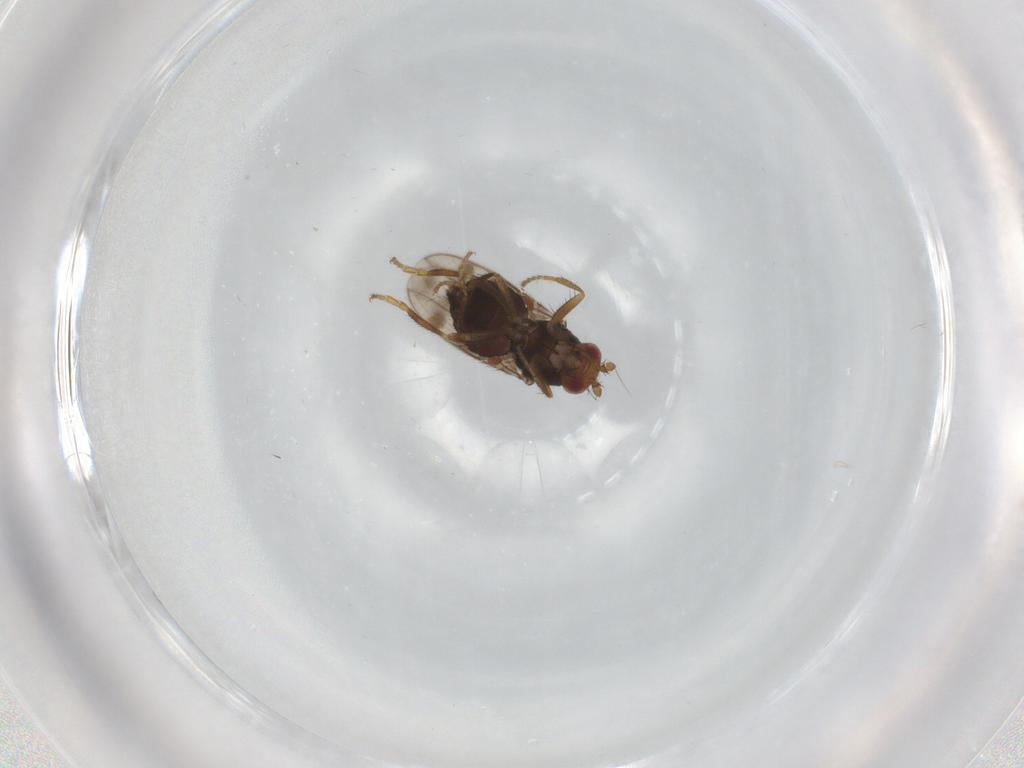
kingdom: Animalia
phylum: Arthropoda
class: Insecta
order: Diptera
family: Sphaeroceridae
